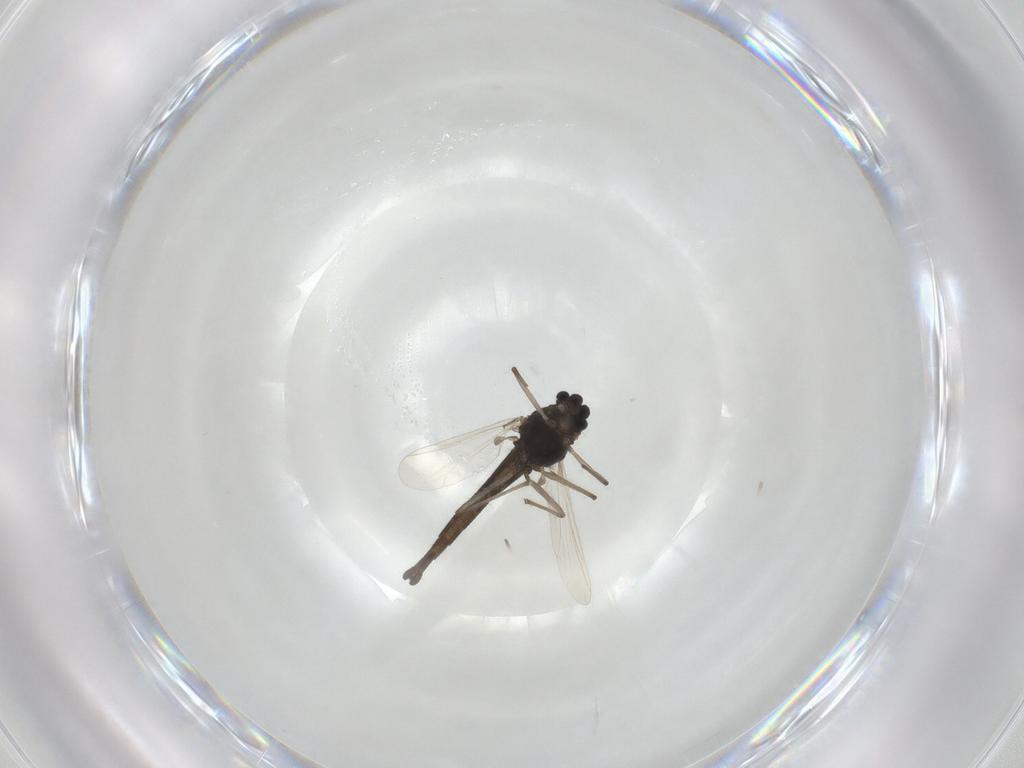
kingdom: Animalia
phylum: Arthropoda
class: Insecta
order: Diptera
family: Chironomidae
